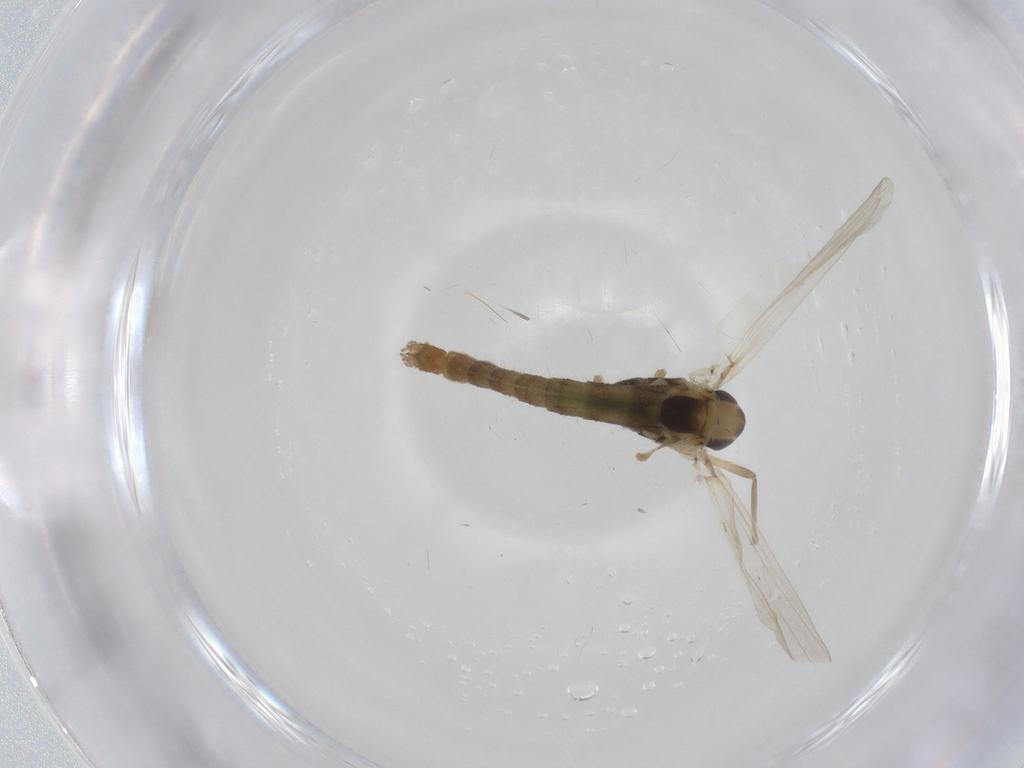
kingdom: Animalia
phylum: Arthropoda
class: Insecta
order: Diptera
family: Chironomidae
